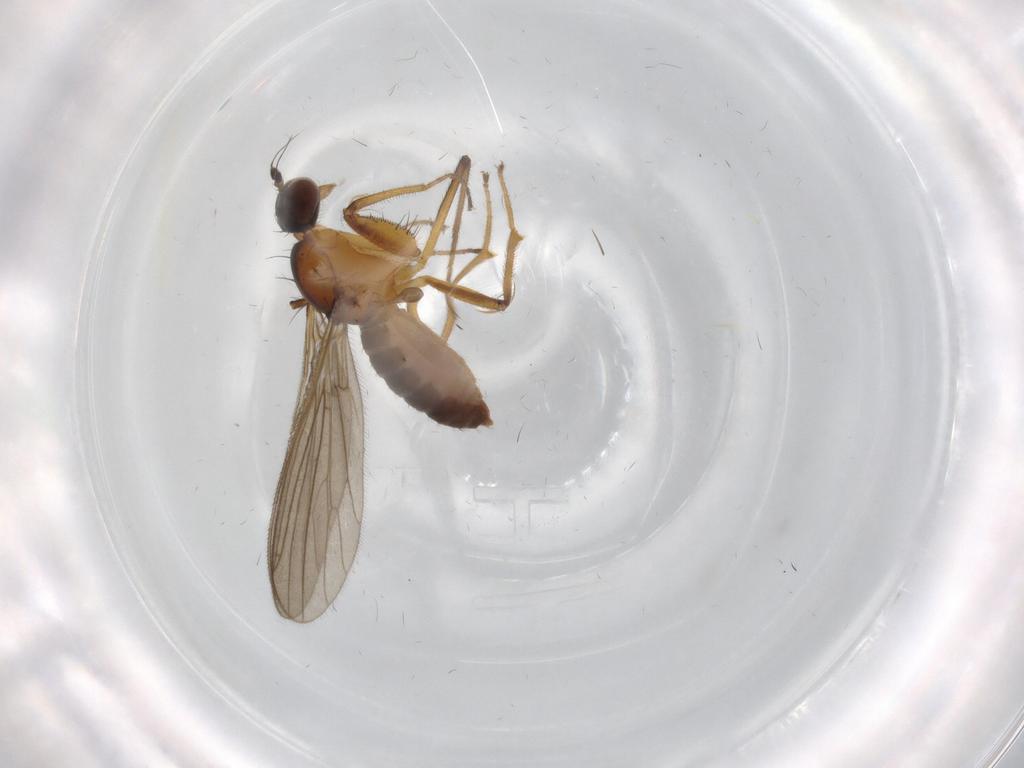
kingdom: Animalia
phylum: Arthropoda
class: Insecta
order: Diptera
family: Empididae
